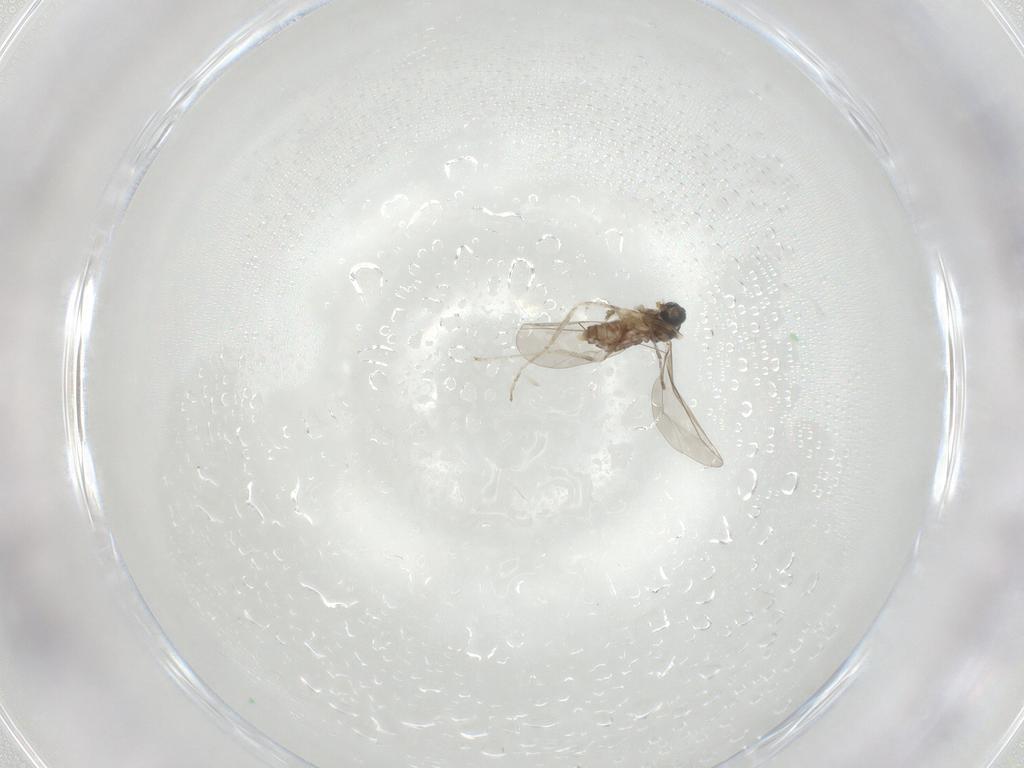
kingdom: Animalia
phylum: Arthropoda
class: Insecta
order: Diptera
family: Cecidomyiidae
